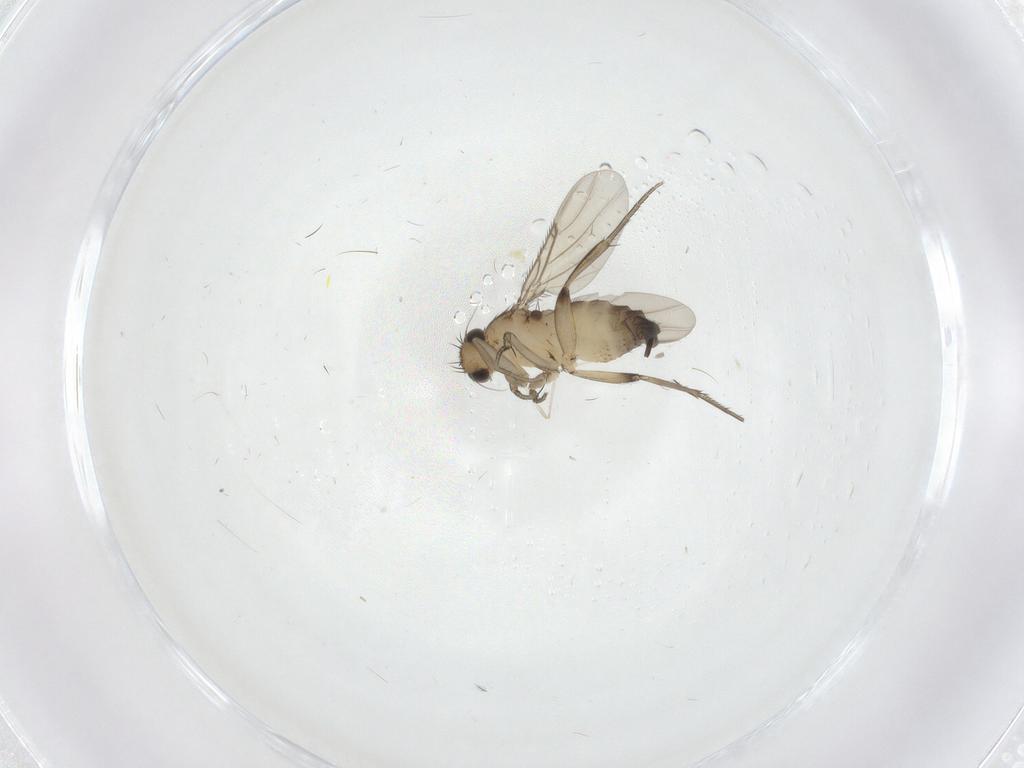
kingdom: Animalia
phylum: Arthropoda
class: Insecta
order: Diptera
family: Cecidomyiidae
